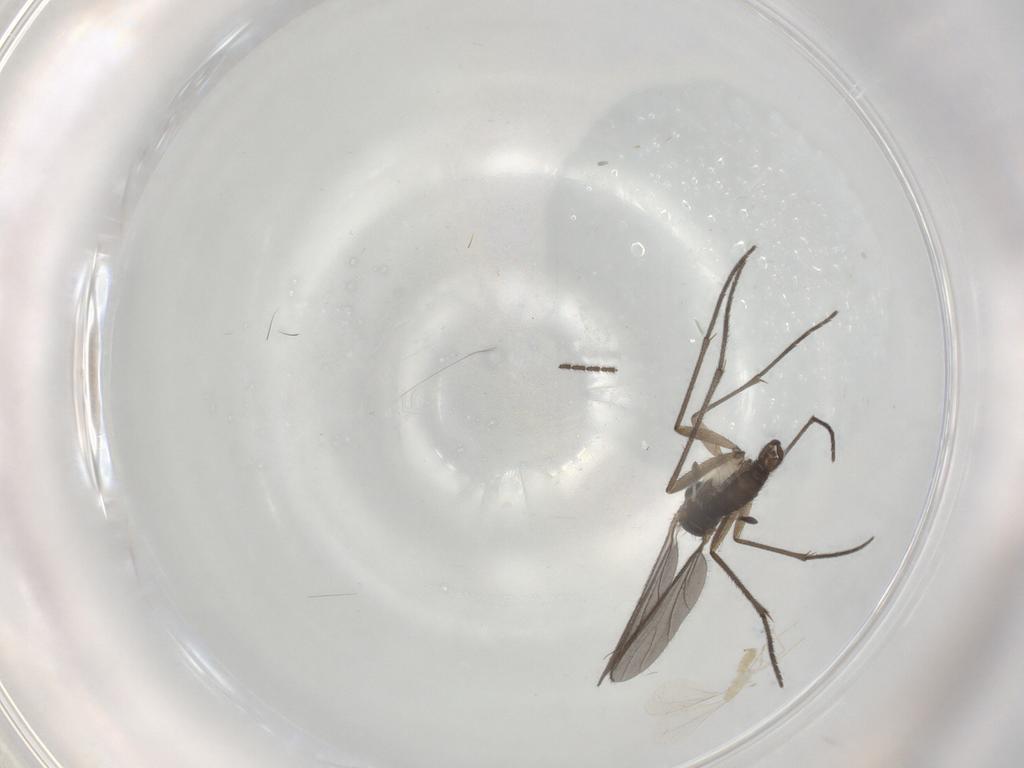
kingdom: Animalia
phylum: Arthropoda
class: Insecta
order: Diptera
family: Sciaridae
